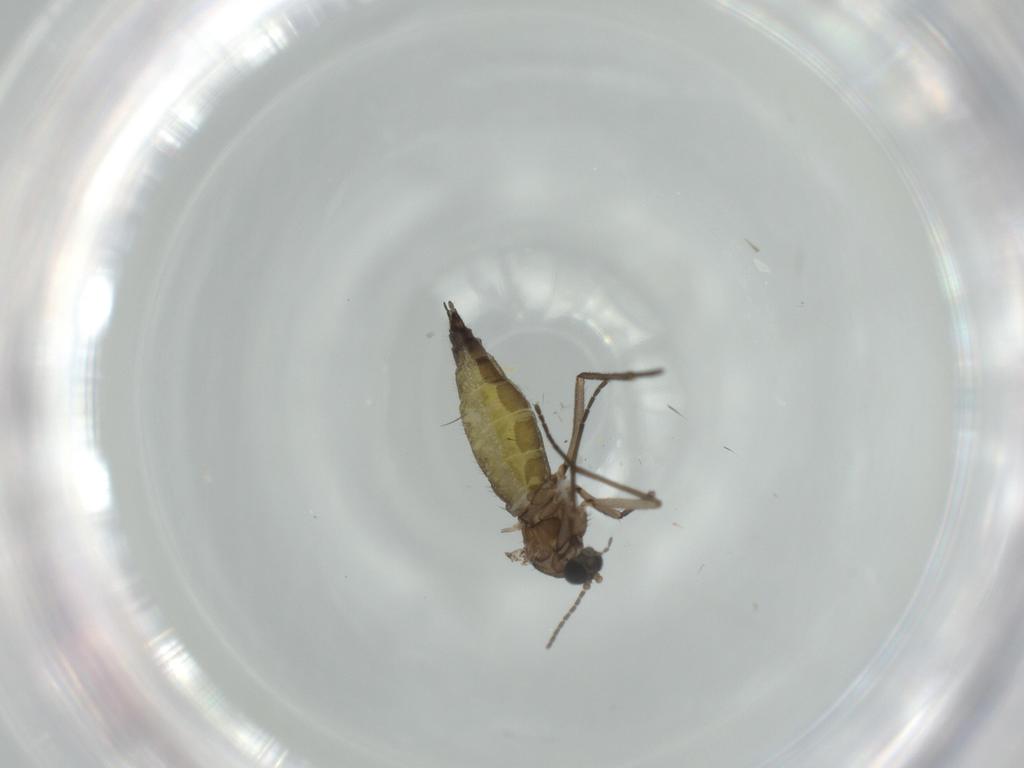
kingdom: Animalia
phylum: Arthropoda
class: Insecta
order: Diptera
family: Sciaridae
